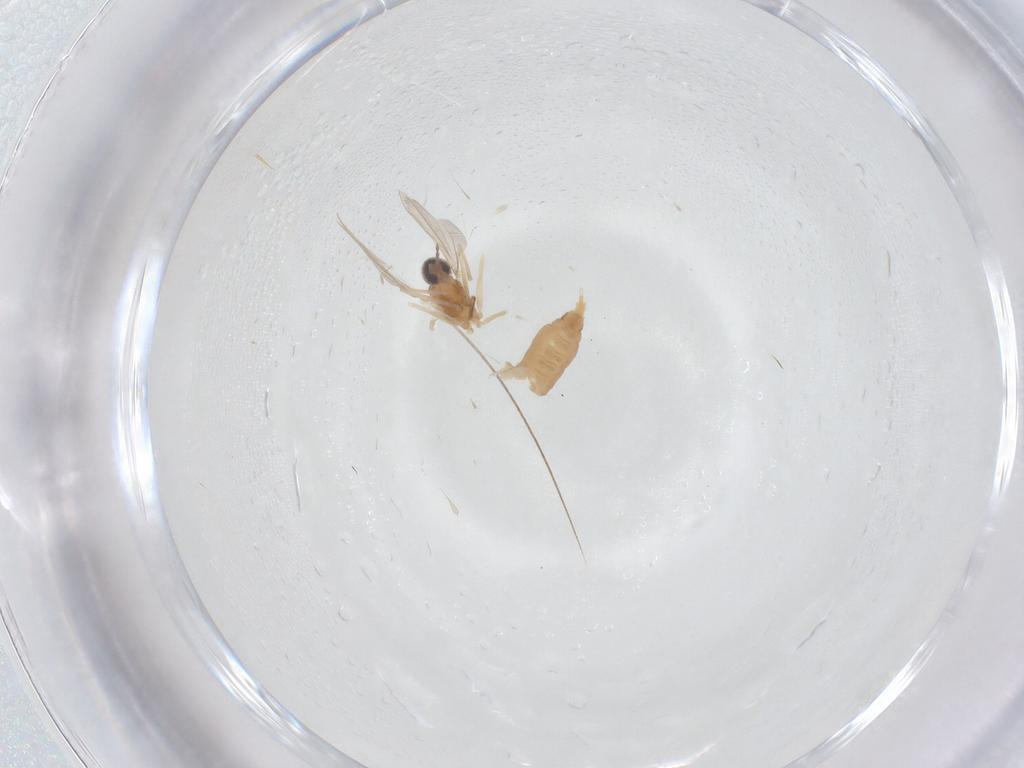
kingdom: Animalia
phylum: Arthropoda
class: Insecta
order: Diptera
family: Cecidomyiidae
